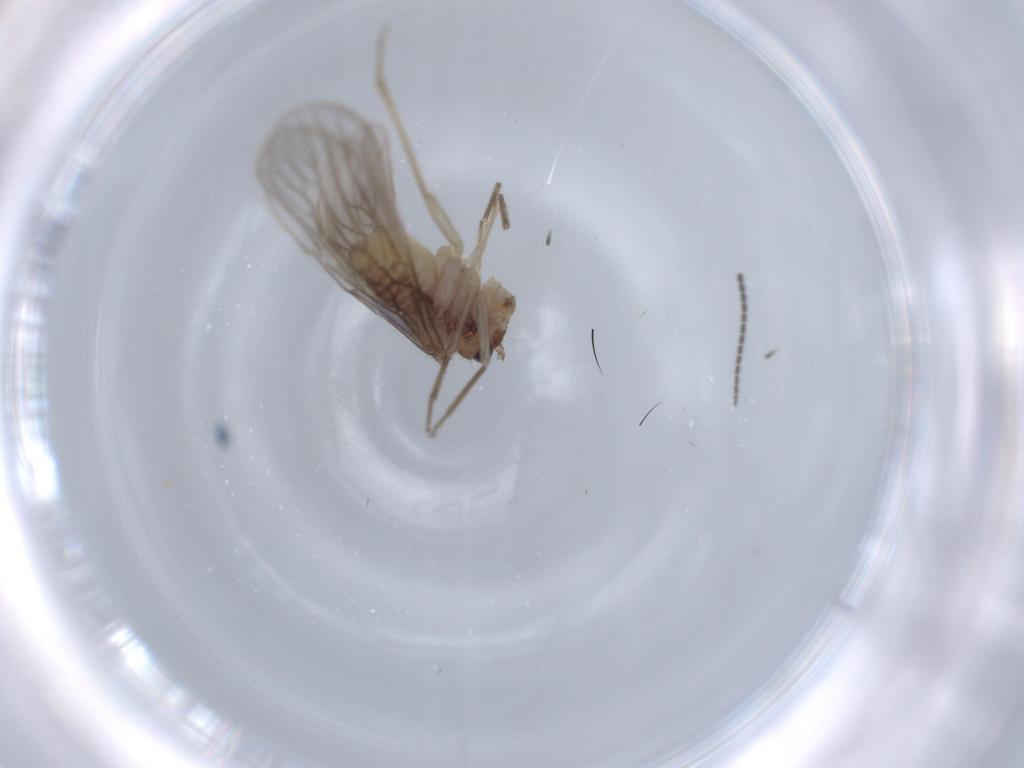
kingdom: Animalia
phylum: Arthropoda
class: Insecta
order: Psocodea
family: Cladiopsocidae
